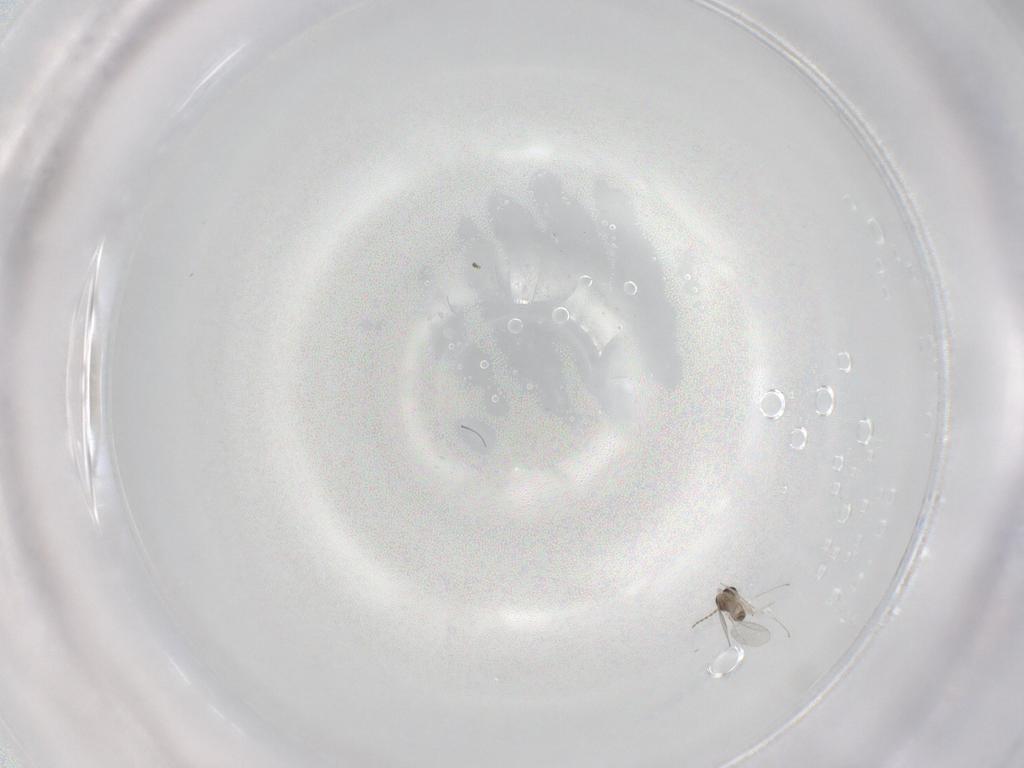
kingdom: Animalia
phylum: Arthropoda
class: Insecta
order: Diptera
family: Cecidomyiidae
